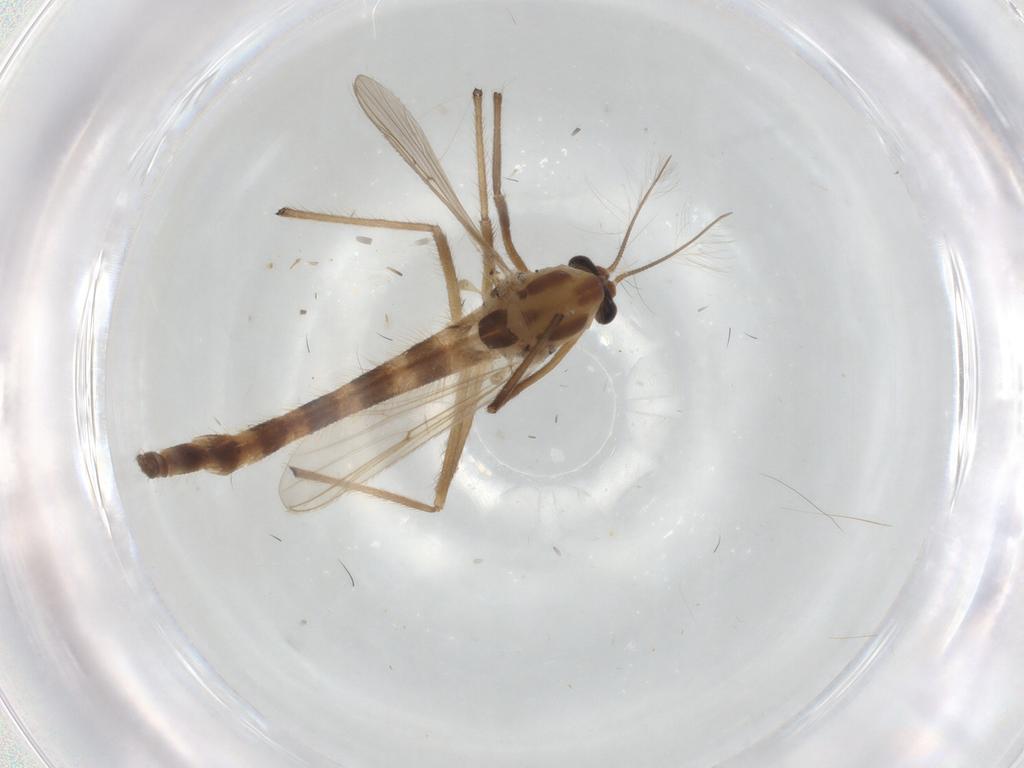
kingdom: Animalia
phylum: Arthropoda
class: Insecta
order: Diptera
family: Chironomidae
